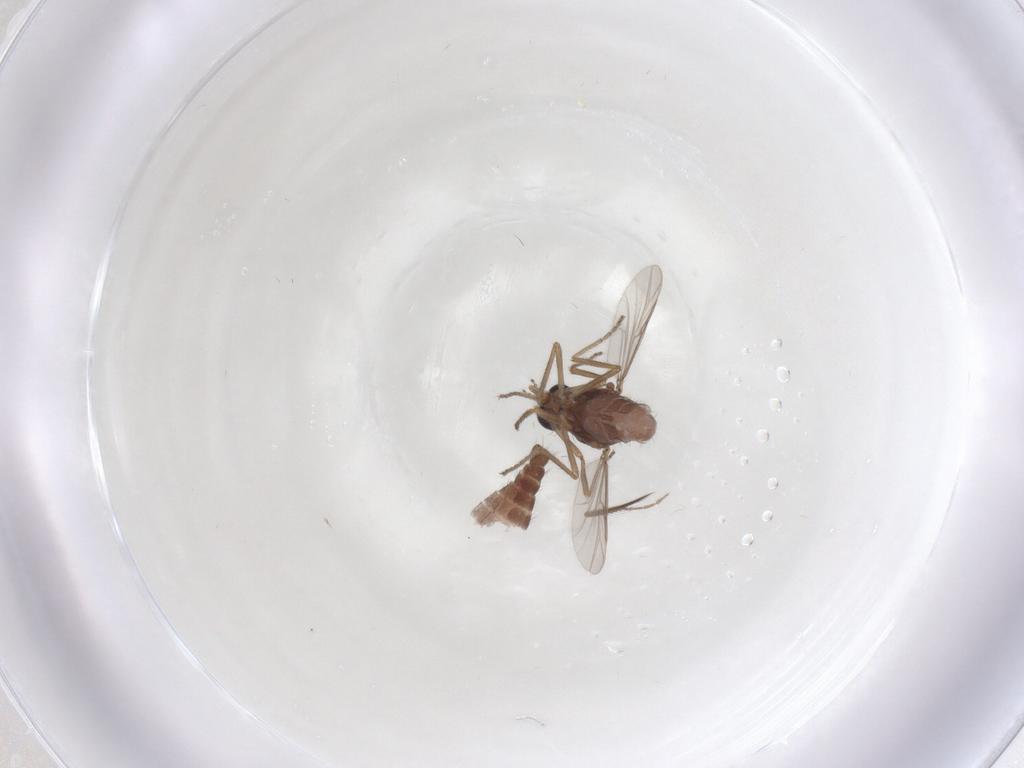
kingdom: Animalia
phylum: Arthropoda
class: Insecta
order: Diptera
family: Ceratopogonidae
